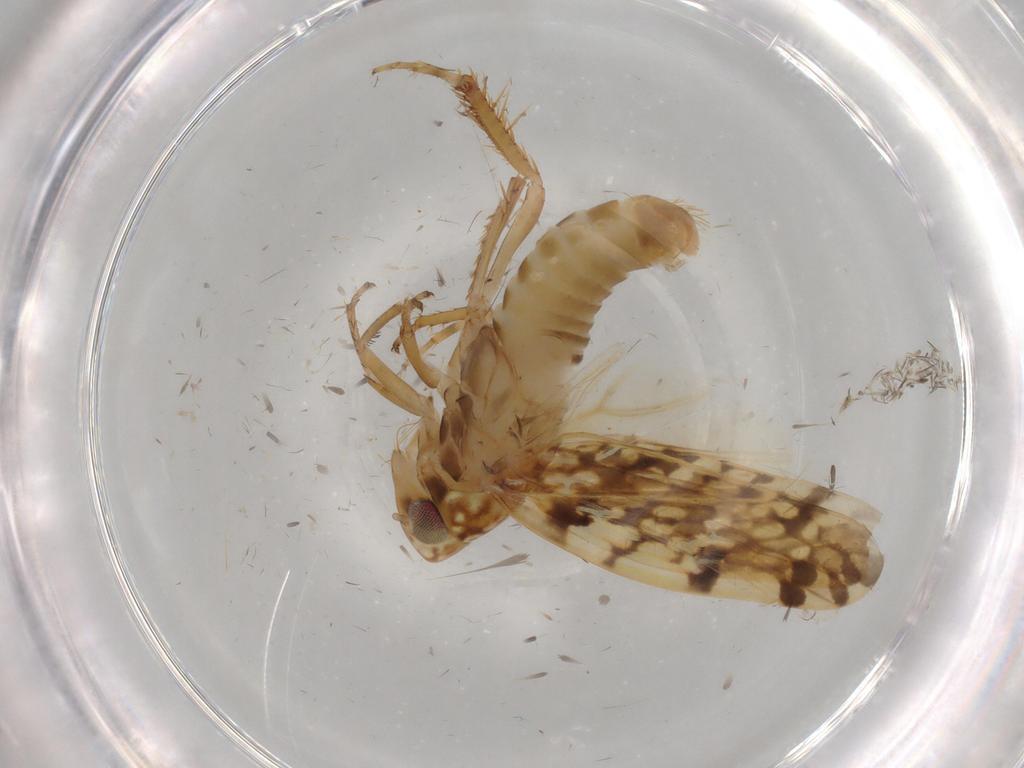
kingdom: Animalia
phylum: Arthropoda
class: Insecta
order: Hemiptera
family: Cicadellidae
